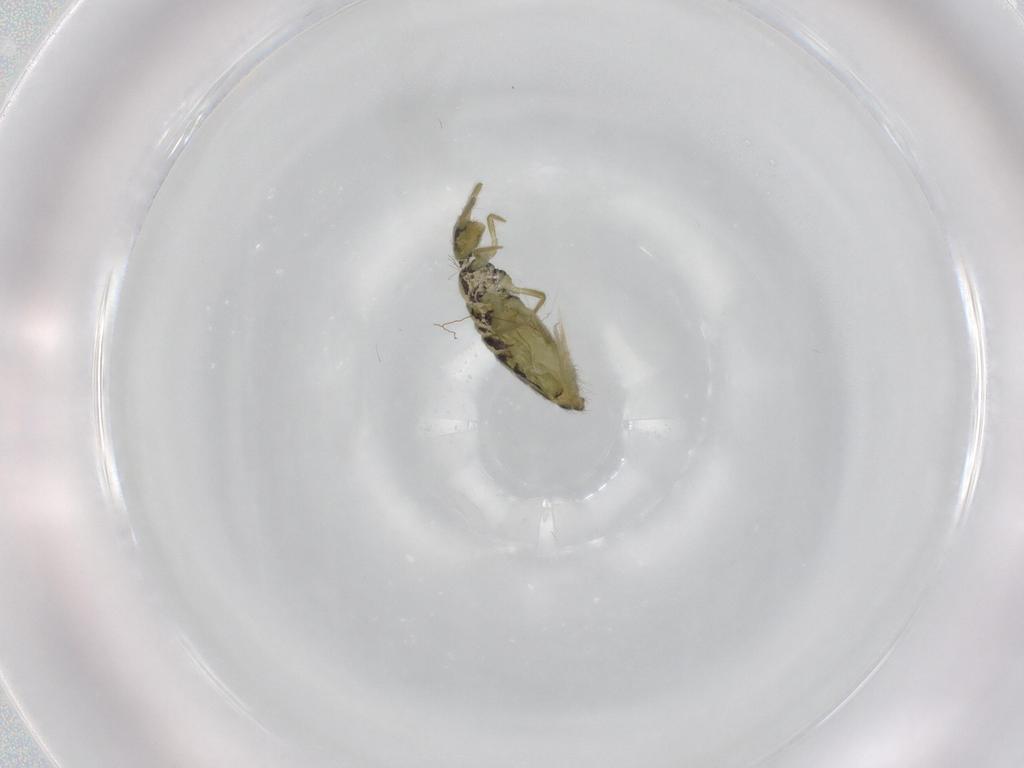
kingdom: Animalia
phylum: Arthropoda
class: Collembola
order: Entomobryomorpha
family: Entomobryidae
